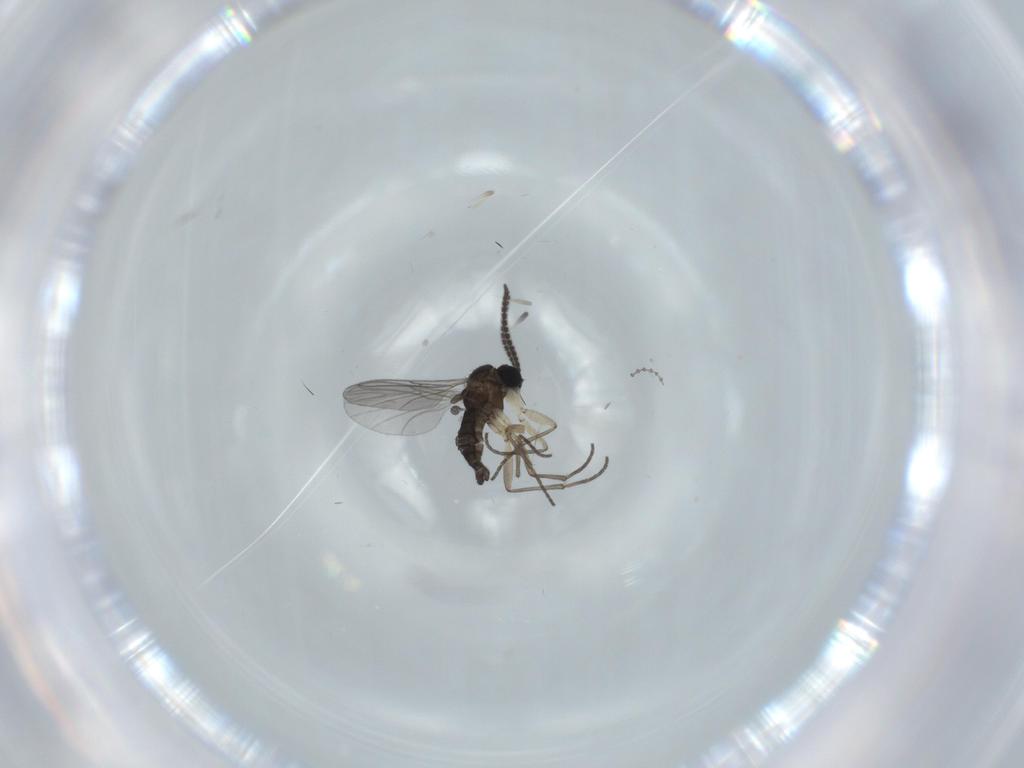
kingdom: Animalia
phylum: Arthropoda
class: Insecta
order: Diptera
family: Sciaridae
